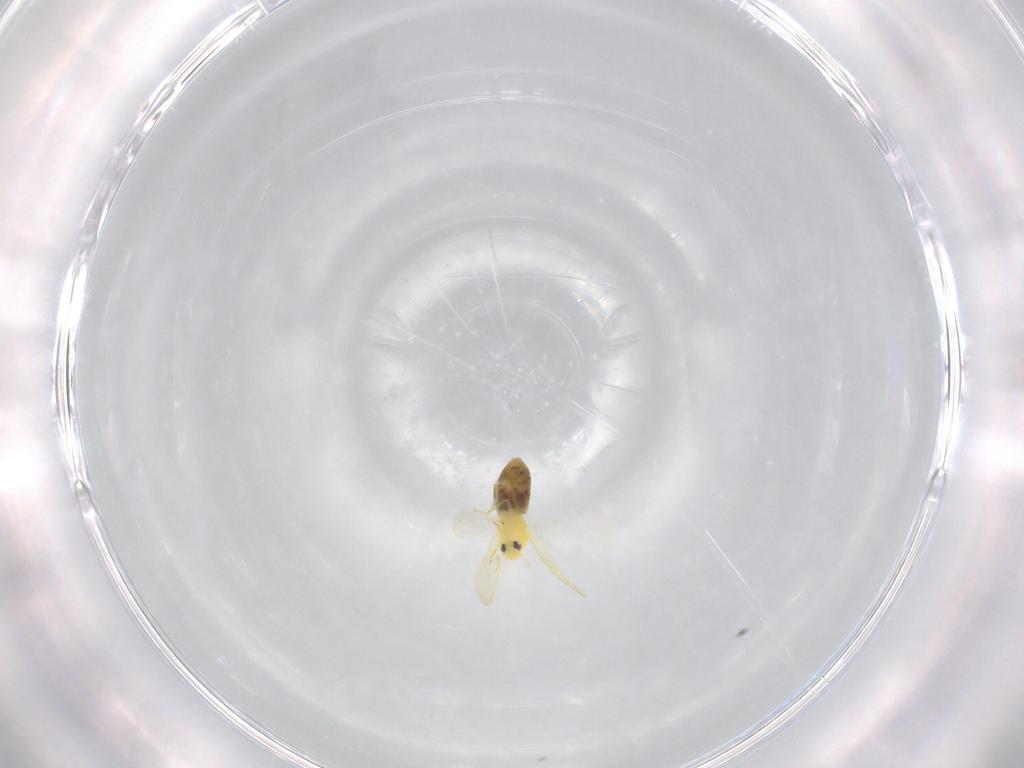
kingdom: Animalia
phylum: Arthropoda
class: Insecta
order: Hemiptera
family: Aleyrodidae
